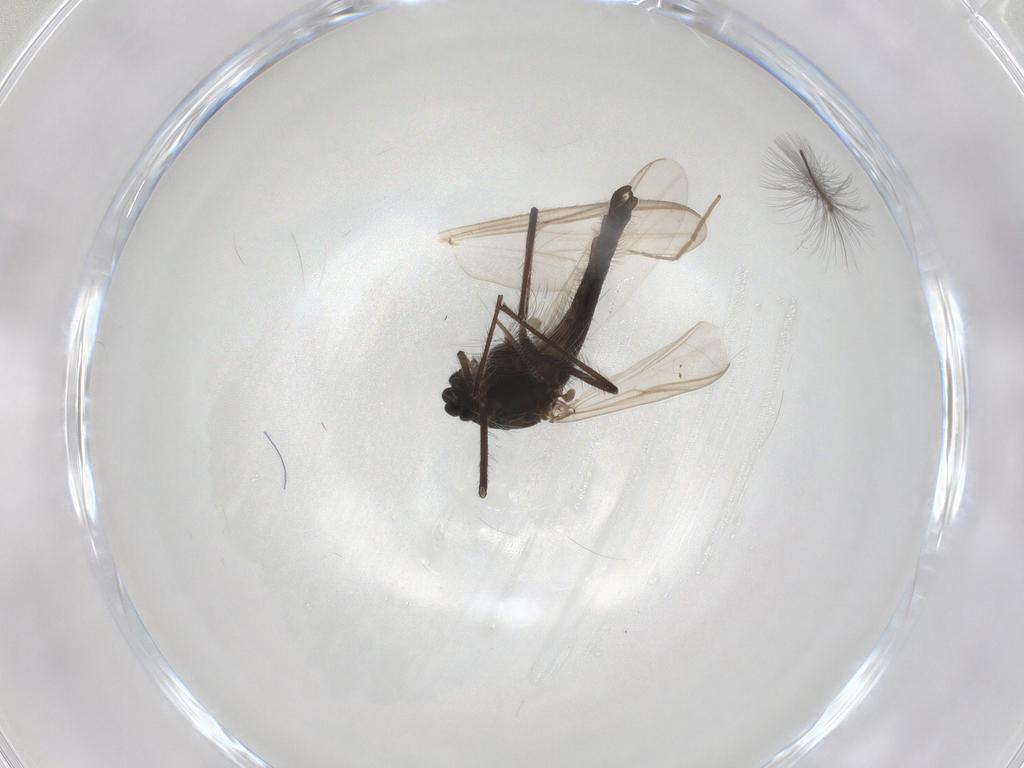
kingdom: Animalia
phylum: Arthropoda
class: Insecta
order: Diptera
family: Chironomidae
